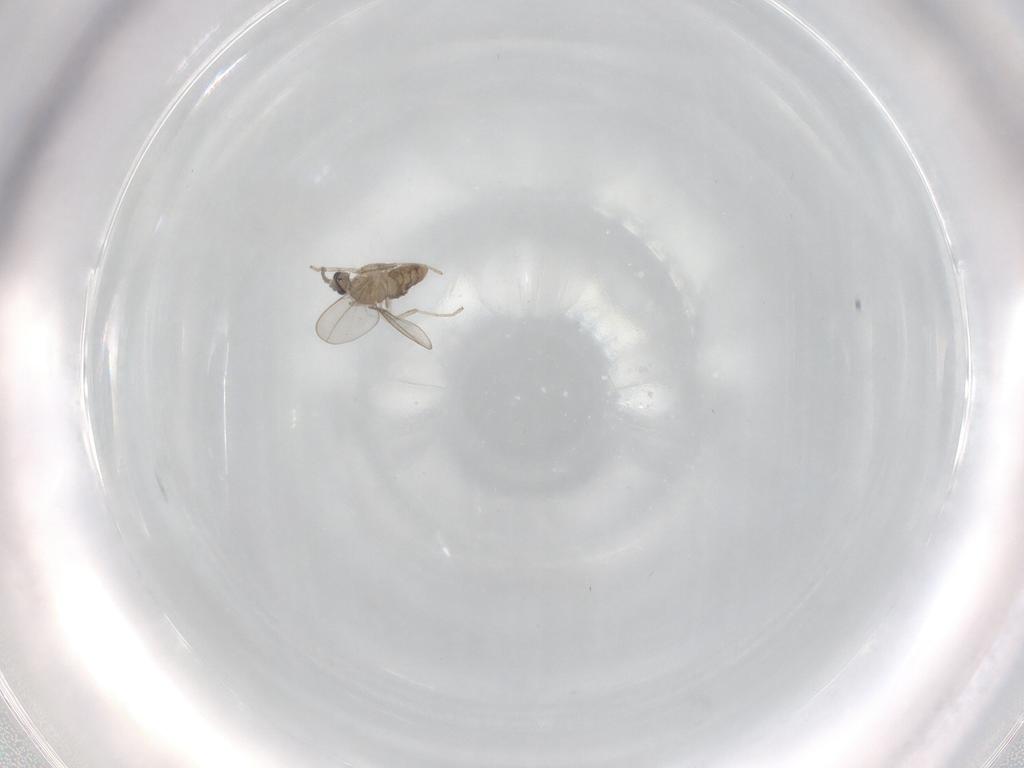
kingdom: Animalia
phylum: Arthropoda
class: Insecta
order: Diptera
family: Cecidomyiidae
